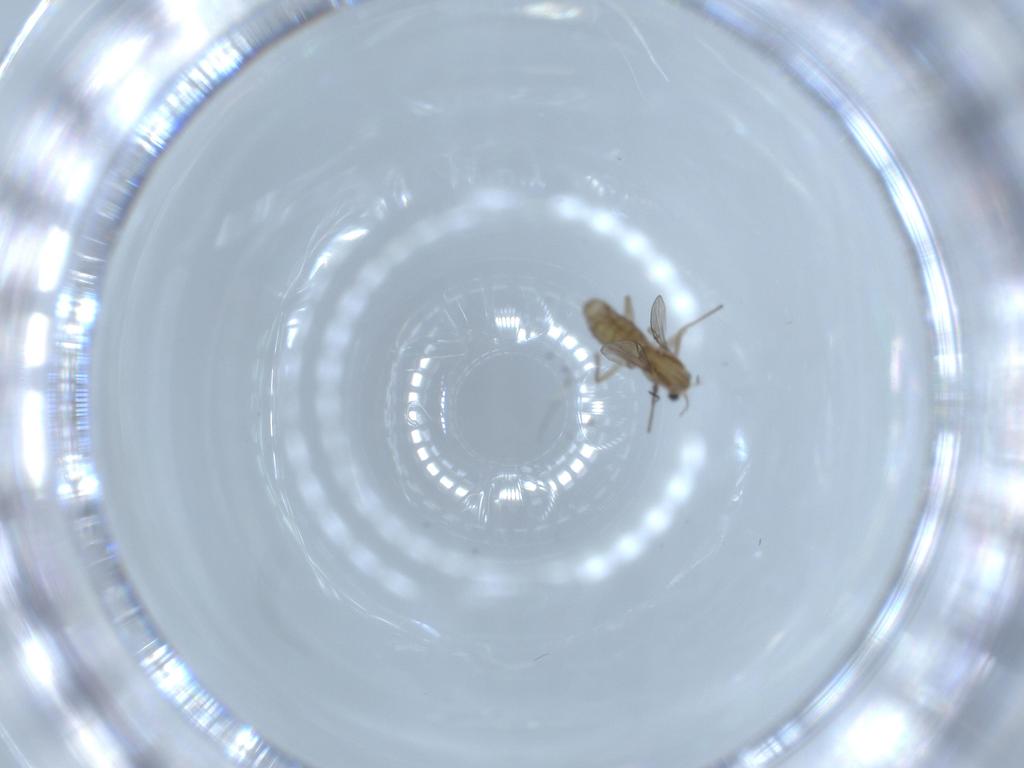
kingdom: Animalia
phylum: Arthropoda
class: Insecta
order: Diptera
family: Chironomidae
